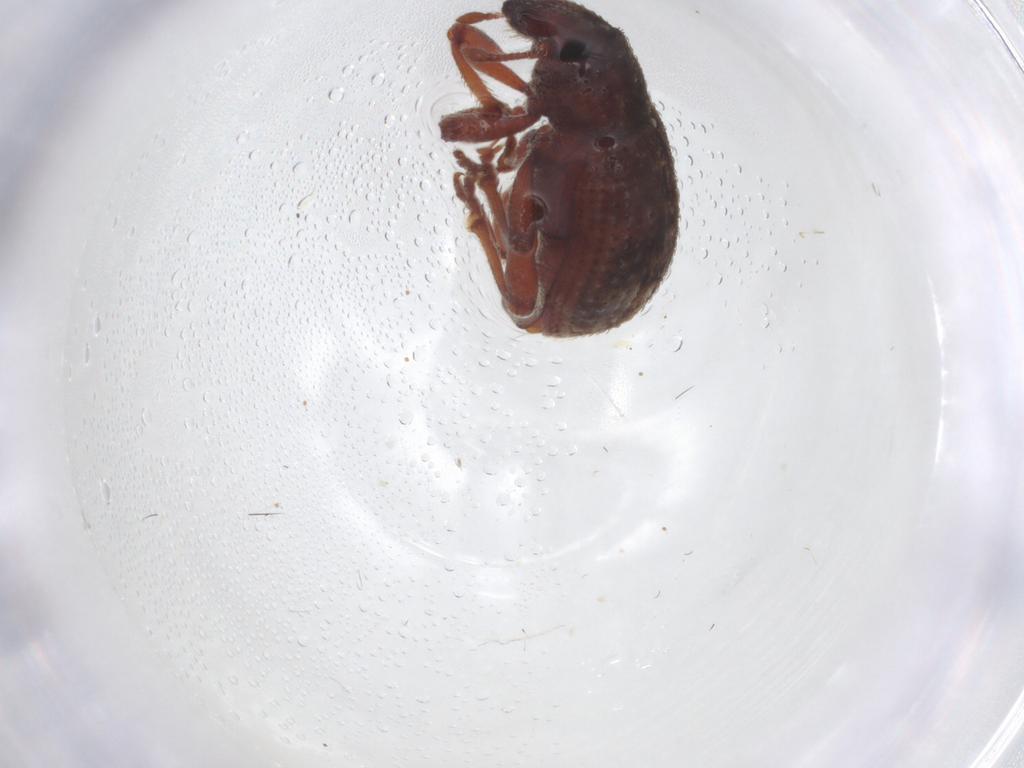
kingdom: Animalia
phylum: Arthropoda
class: Insecta
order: Coleoptera
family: Curculionidae
